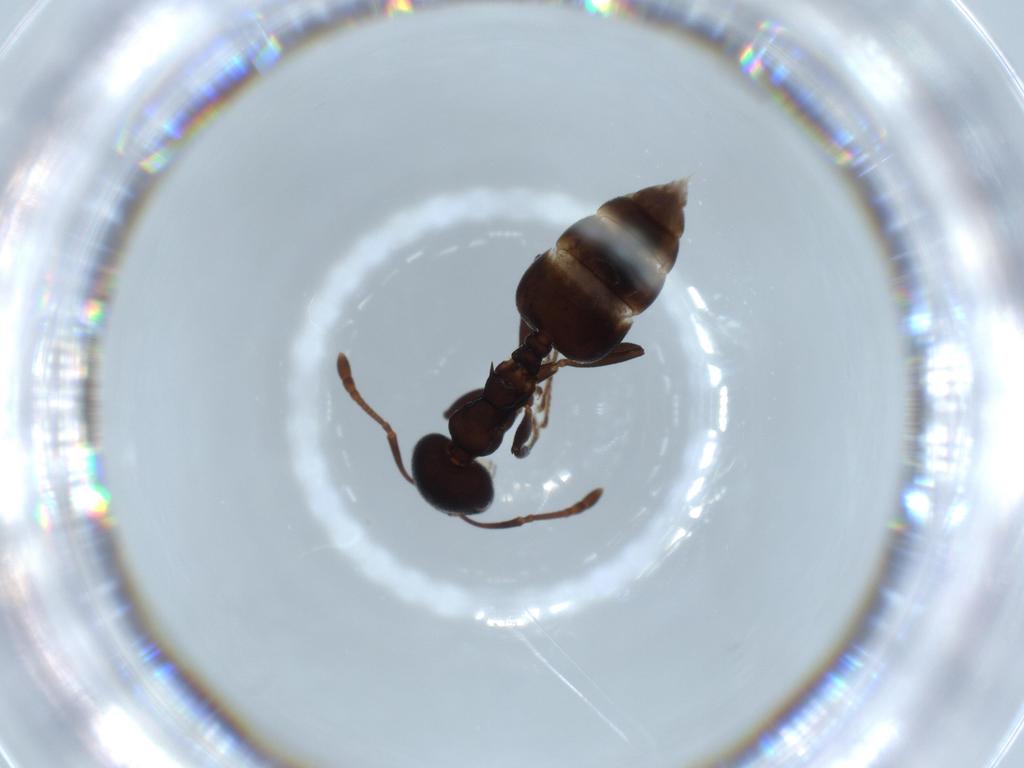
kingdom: Animalia
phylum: Arthropoda
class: Insecta
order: Hymenoptera
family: Formicidae
